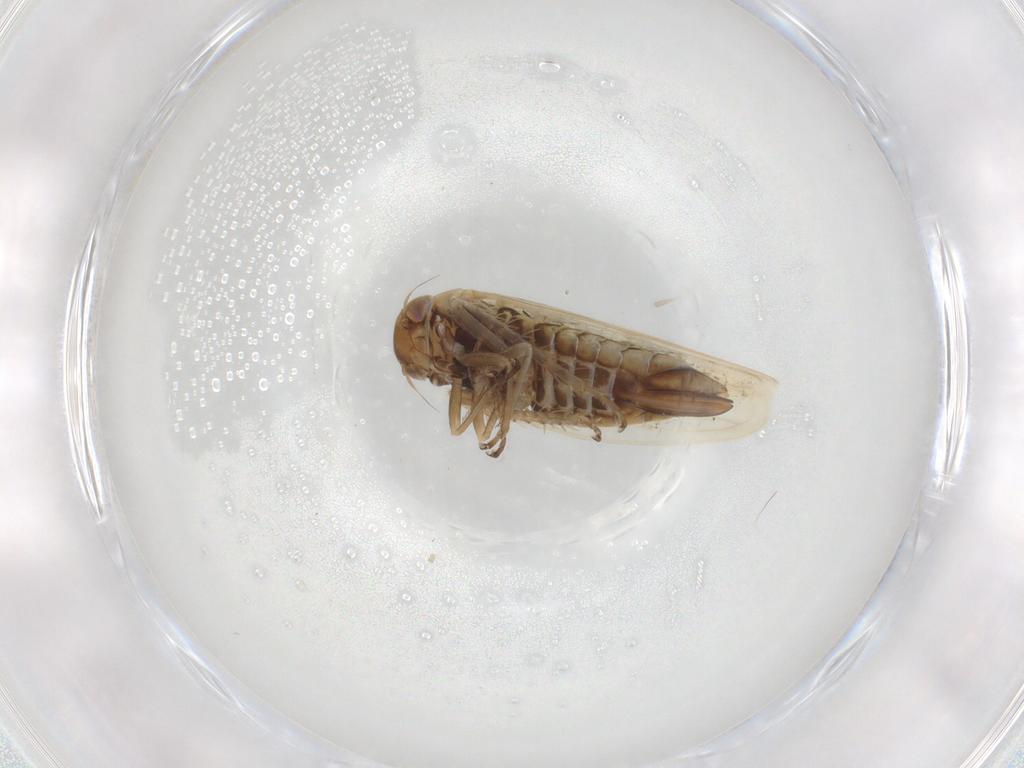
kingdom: Animalia
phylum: Arthropoda
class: Insecta
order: Hemiptera
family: Cicadellidae
